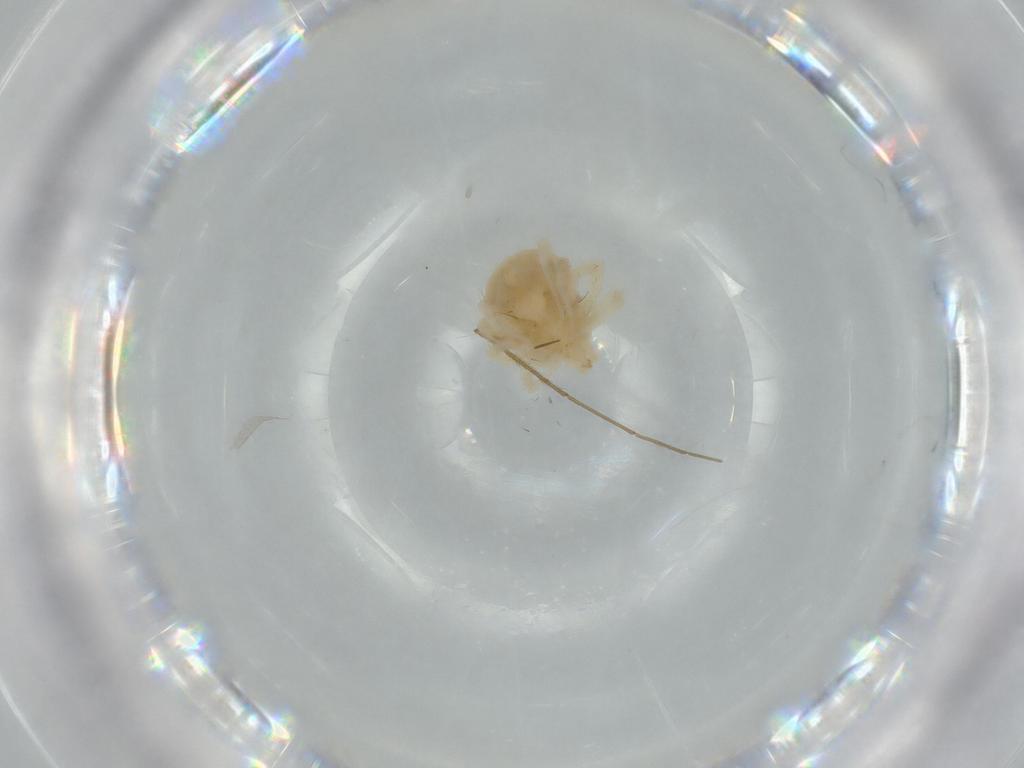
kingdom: Animalia
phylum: Arthropoda
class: Arachnida
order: Trombidiformes
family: Anystidae
